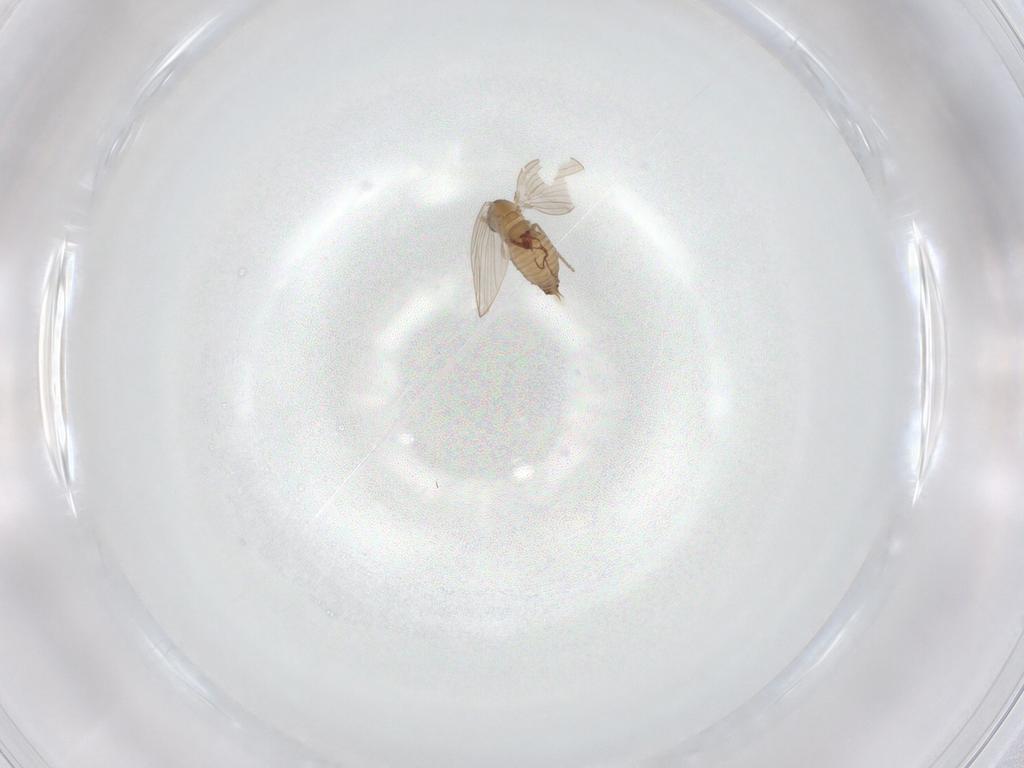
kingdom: Animalia
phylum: Arthropoda
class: Insecta
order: Diptera
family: Psychodidae
